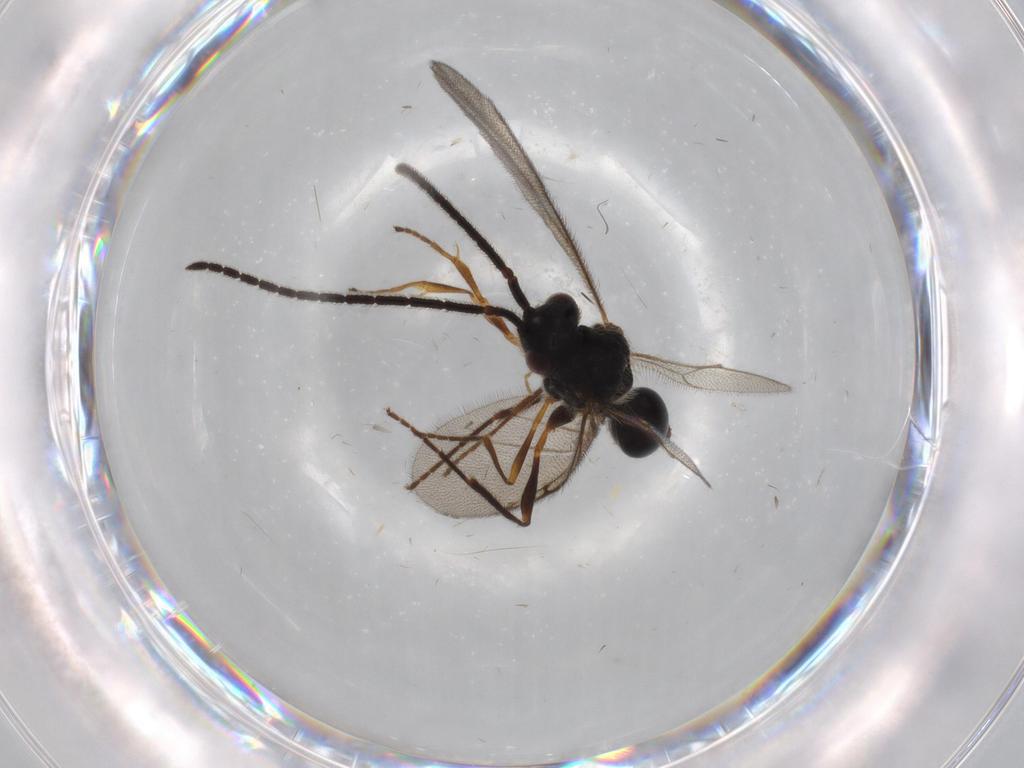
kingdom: Animalia
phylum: Arthropoda
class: Insecta
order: Hymenoptera
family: Diapriidae
